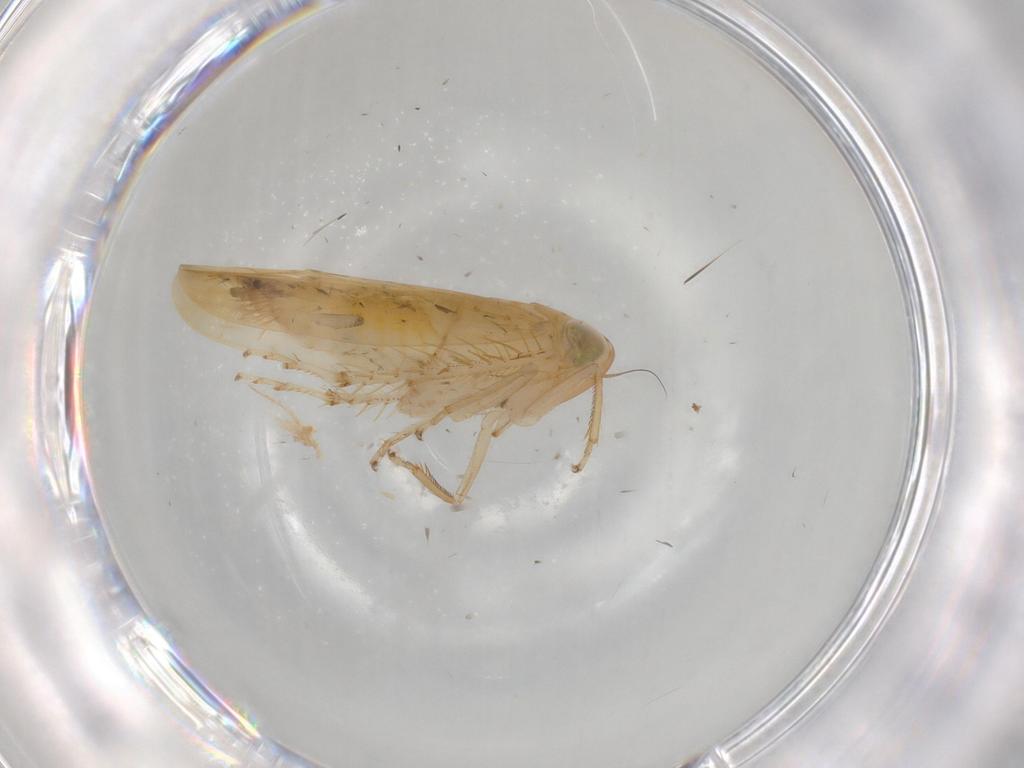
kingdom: Animalia
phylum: Arthropoda
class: Insecta
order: Hemiptera
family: Cicadellidae
